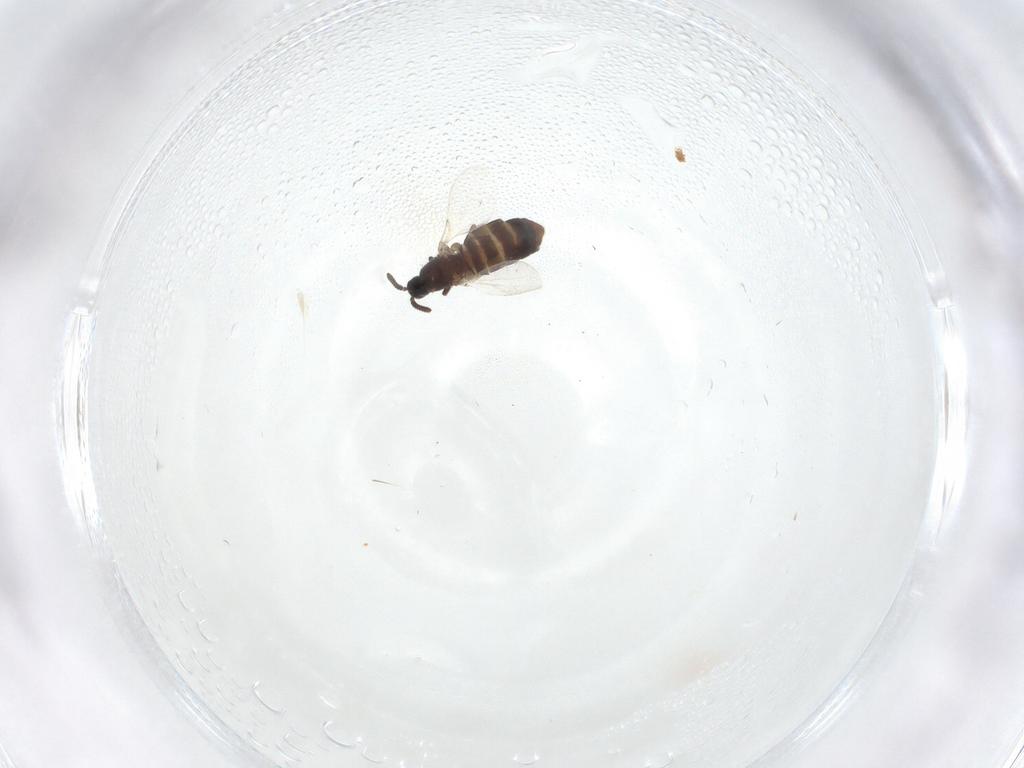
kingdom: Animalia
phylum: Arthropoda
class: Insecta
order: Diptera
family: Scatopsidae
